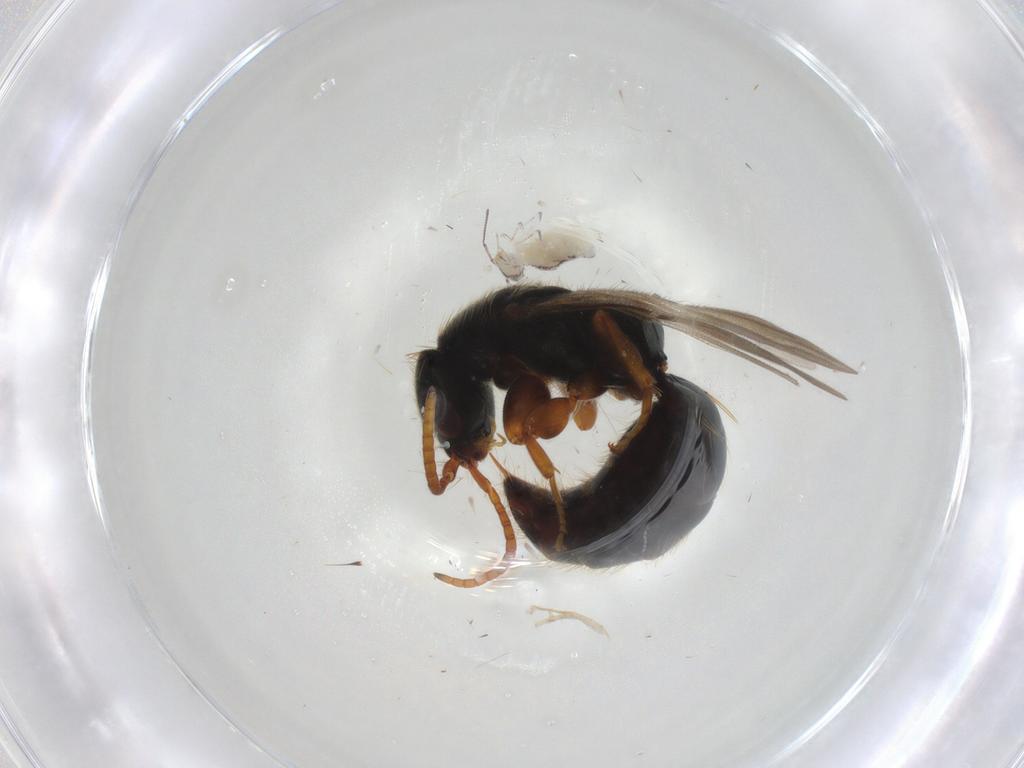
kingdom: Animalia
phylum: Arthropoda
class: Insecta
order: Hymenoptera
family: Bethylidae
